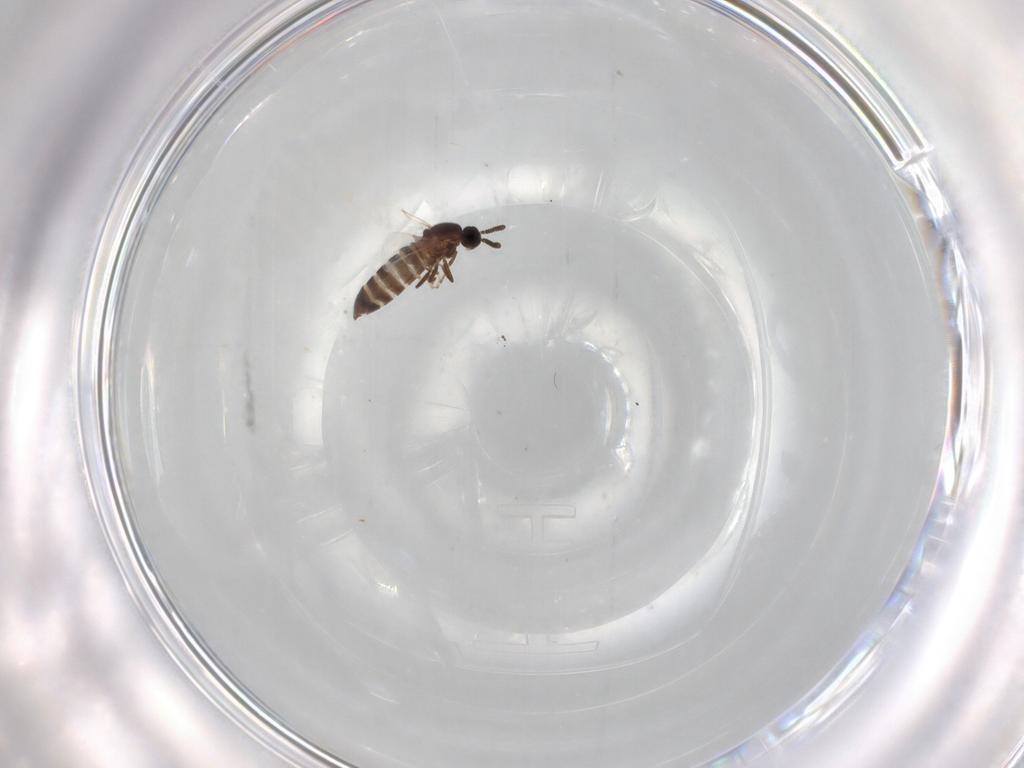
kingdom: Animalia
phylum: Arthropoda
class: Insecta
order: Diptera
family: Scatopsidae
